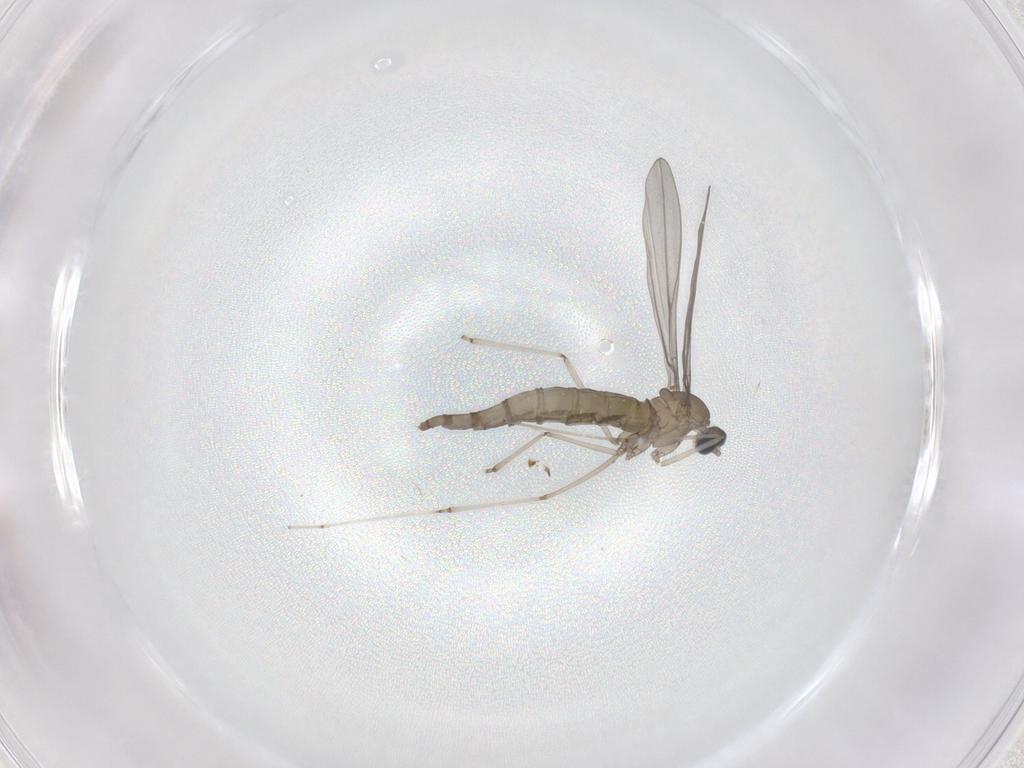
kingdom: Animalia
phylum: Arthropoda
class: Insecta
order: Diptera
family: Cecidomyiidae
